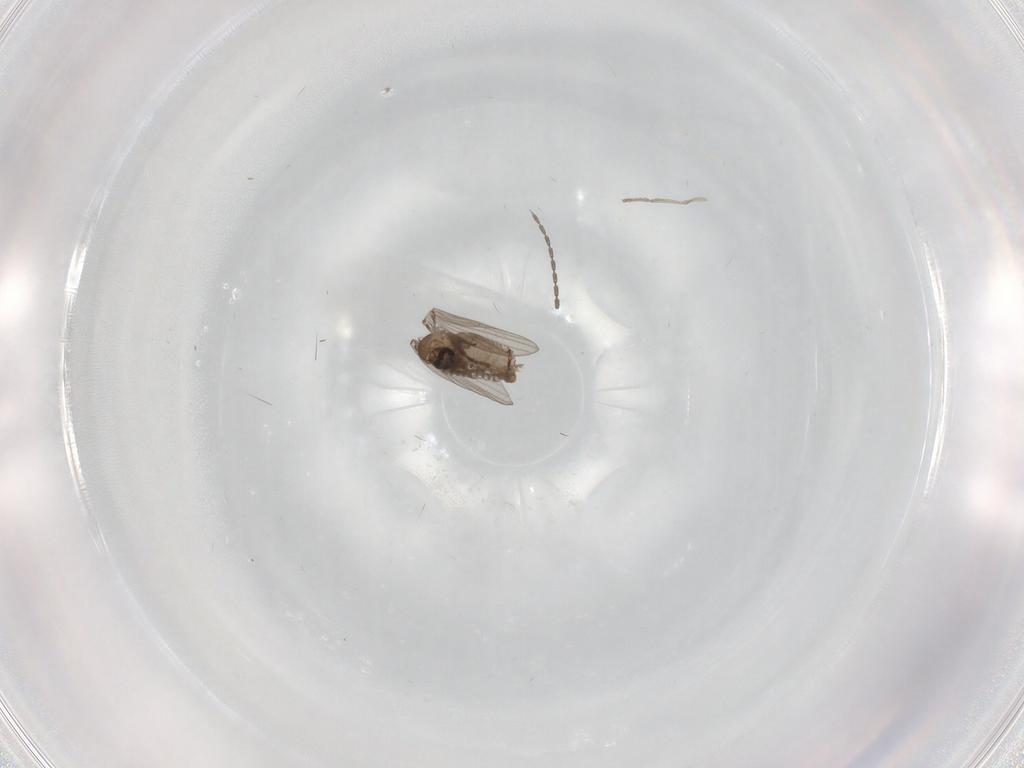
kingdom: Animalia
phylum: Arthropoda
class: Insecta
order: Diptera
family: Psychodidae
